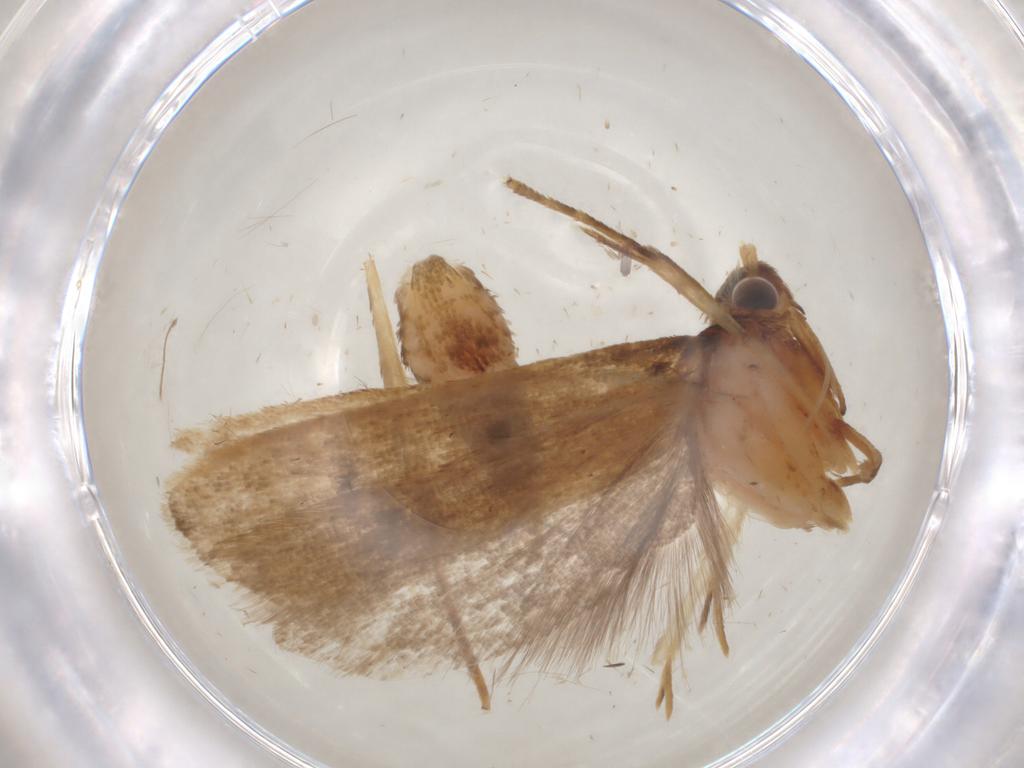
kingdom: Animalia
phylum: Arthropoda
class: Insecta
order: Lepidoptera
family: Lecithoceridae
